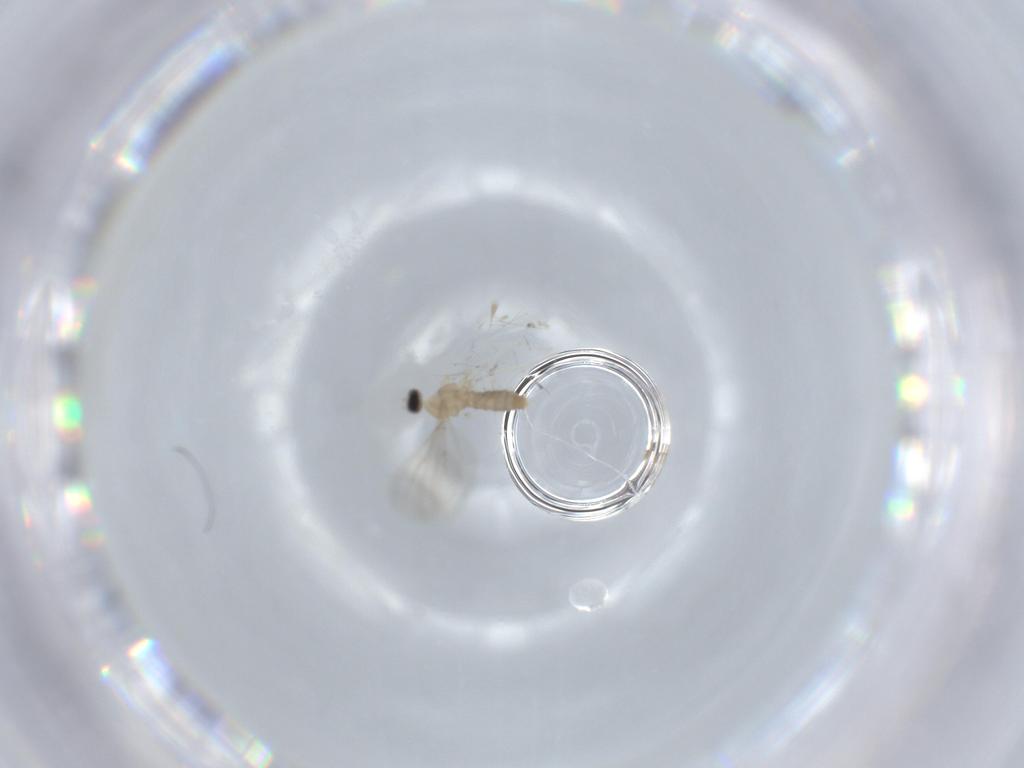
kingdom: Animalia
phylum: Arthropoda
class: Insecta
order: Diptera
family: Cecidomyiidae
